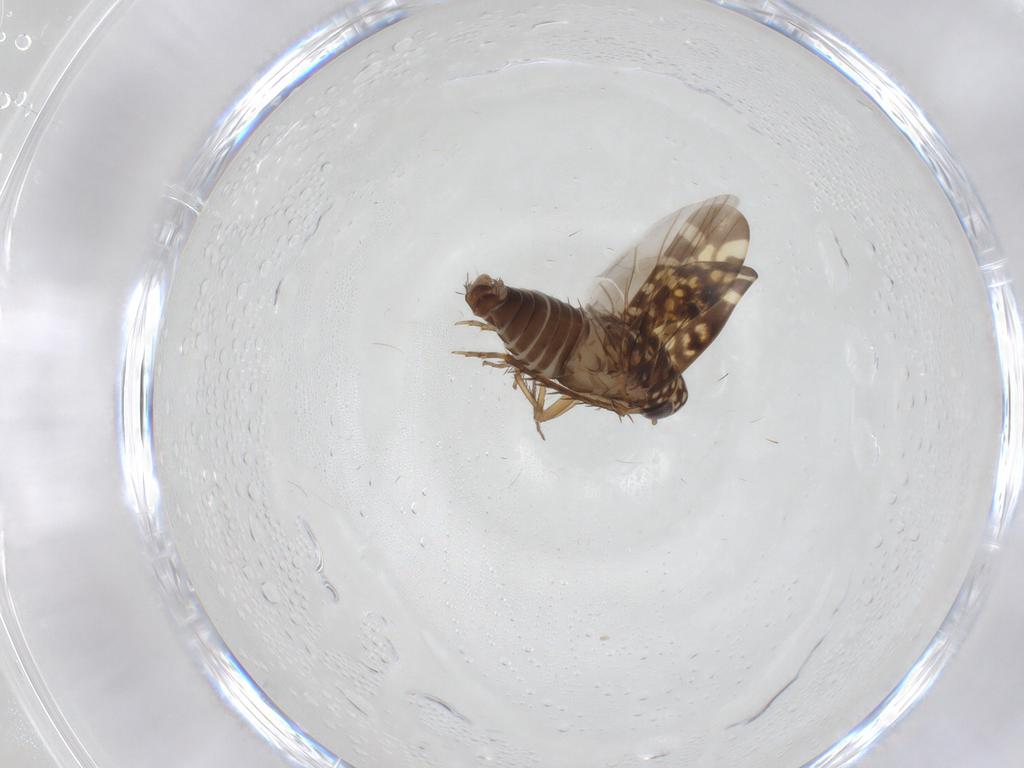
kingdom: Animalia
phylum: Arthropoda
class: Insecta
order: Hemiptera
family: Cicadellidae
